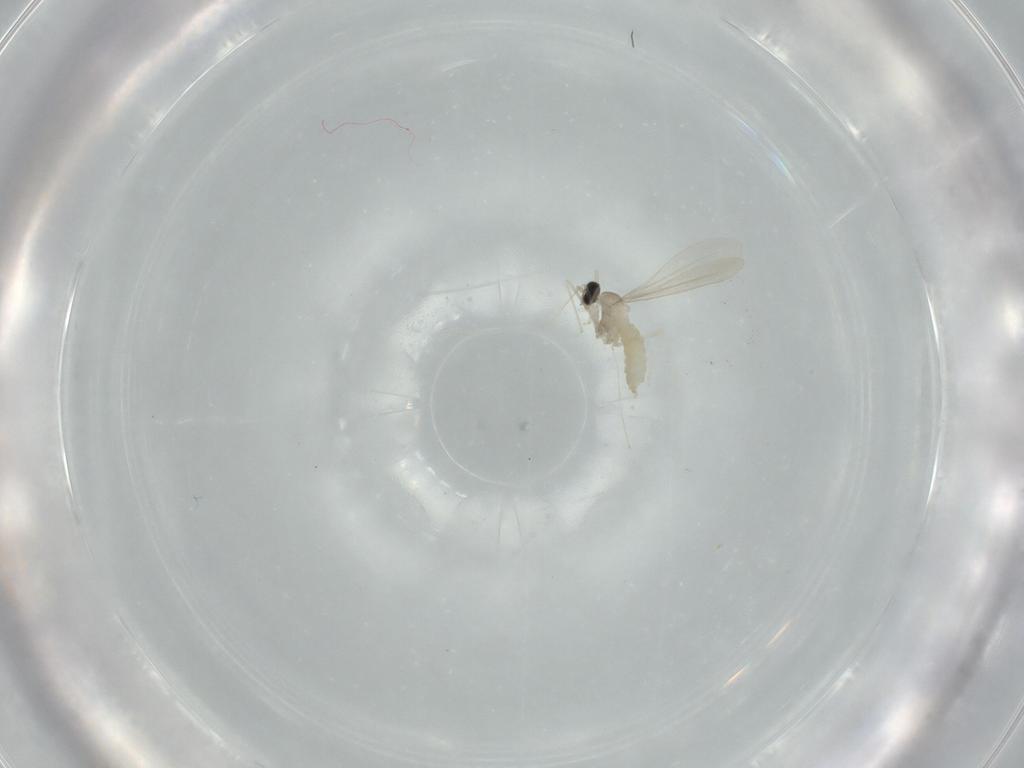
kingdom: Animalia
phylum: Arthropoda
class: Insecta
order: Diptera
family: Cecidomyiidae
